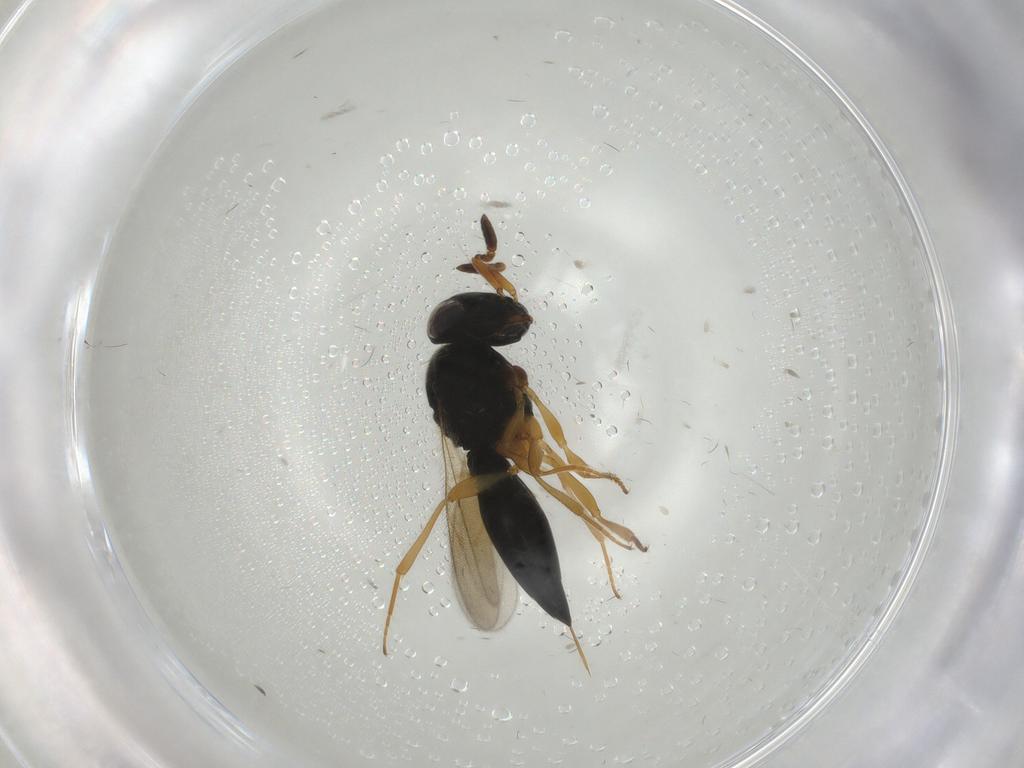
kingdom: Animalia
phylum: Arthropoda
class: Insecta
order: Hymenoptera
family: Scelionidae
